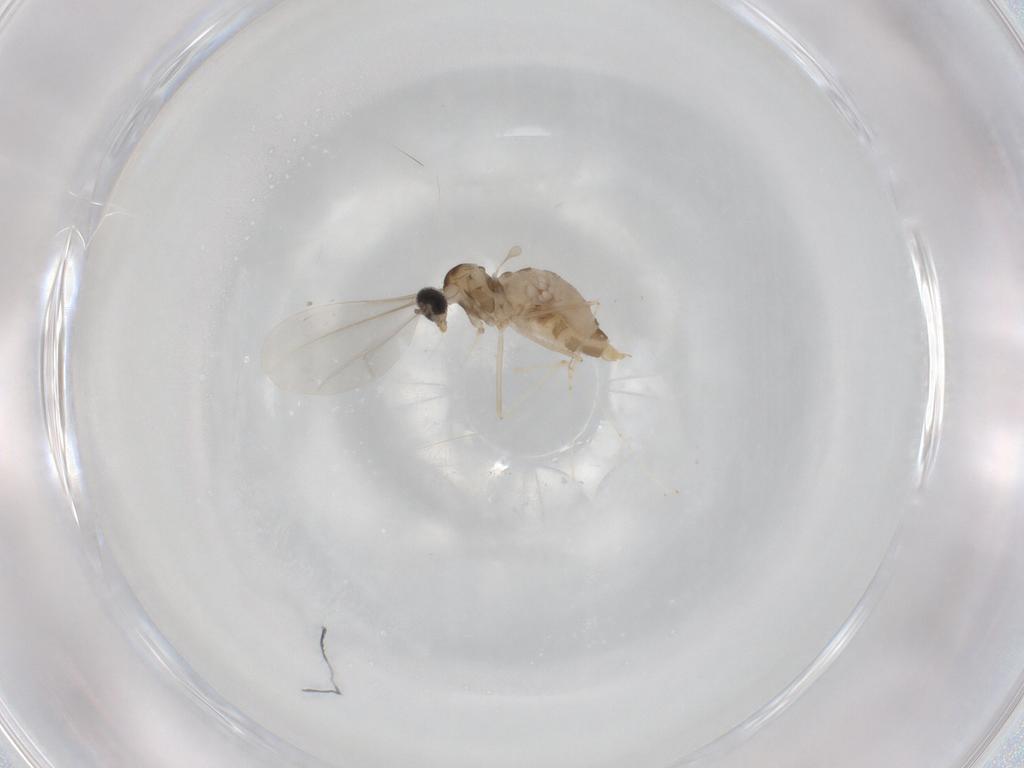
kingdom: Animalia
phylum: Arthropoda
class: Insecta
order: Diptera
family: Cecidomyiidae
